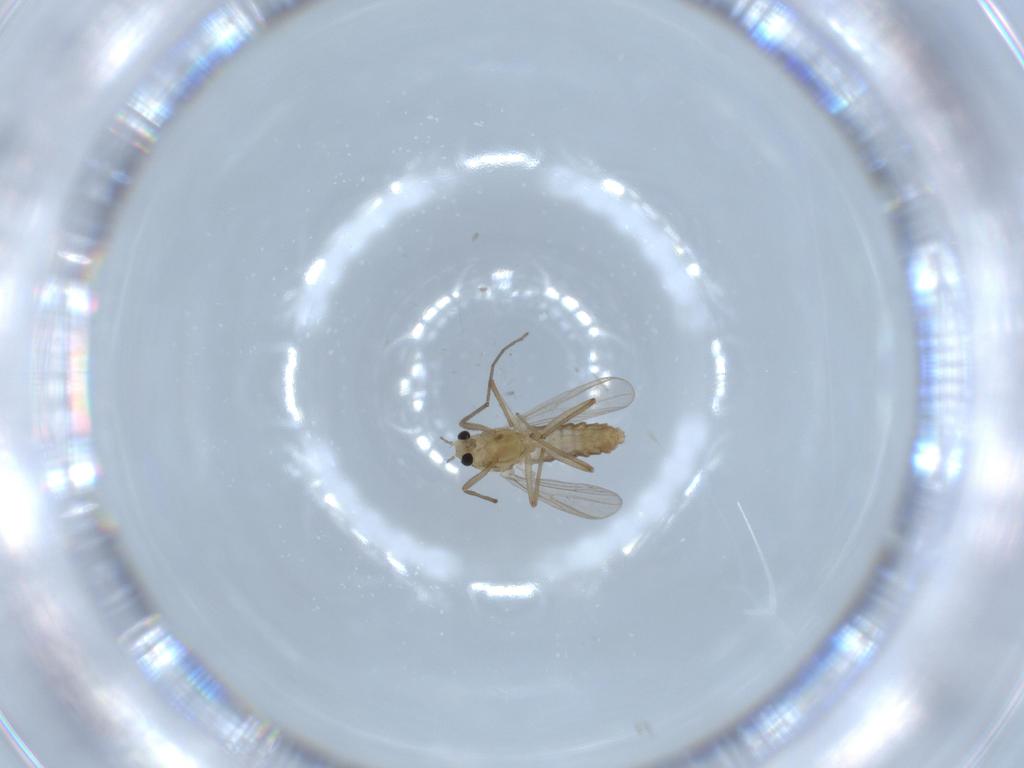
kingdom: Animalia
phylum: Arthropoda
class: Insecta
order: Diptera
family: Chironomidae
